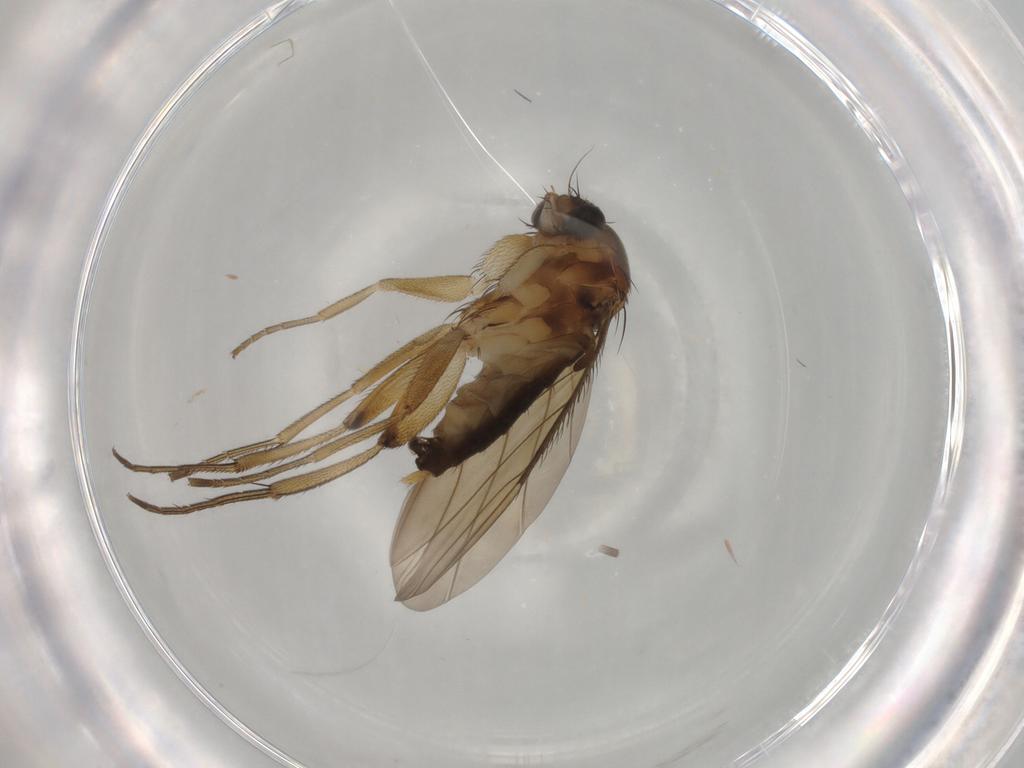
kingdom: Animalia
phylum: Arthropoda
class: Insecta
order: Diptera
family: Phoridae
